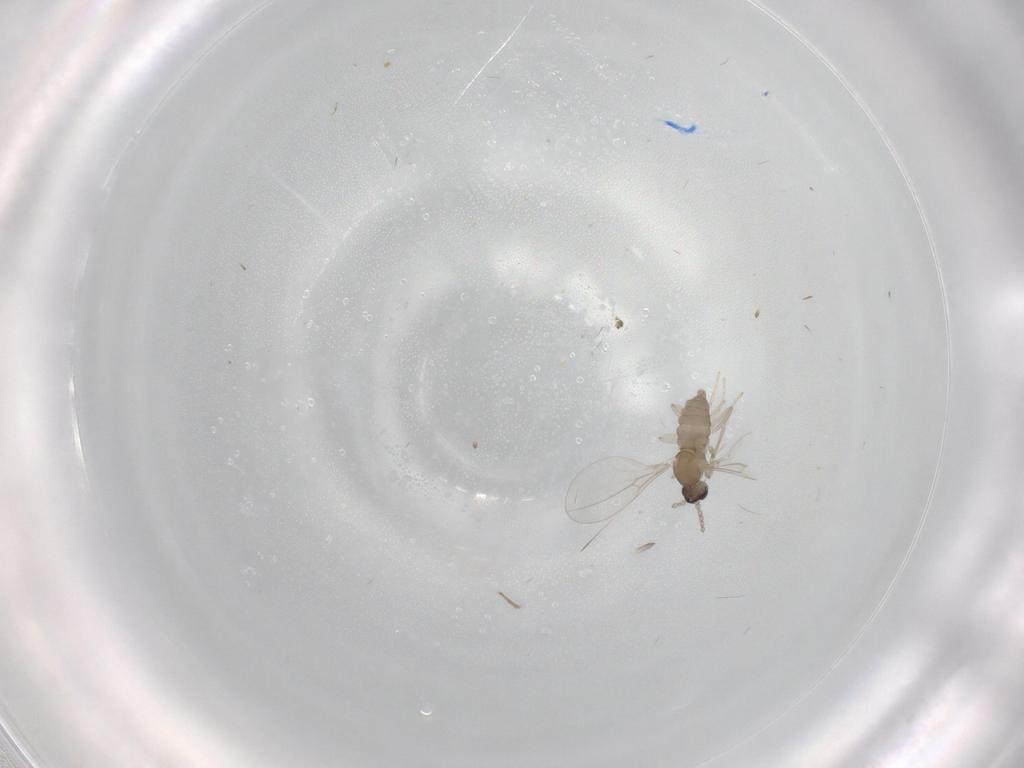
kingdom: Animalia
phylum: Arthropoda
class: Insecta
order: Diptera
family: Cecidomyiidae
